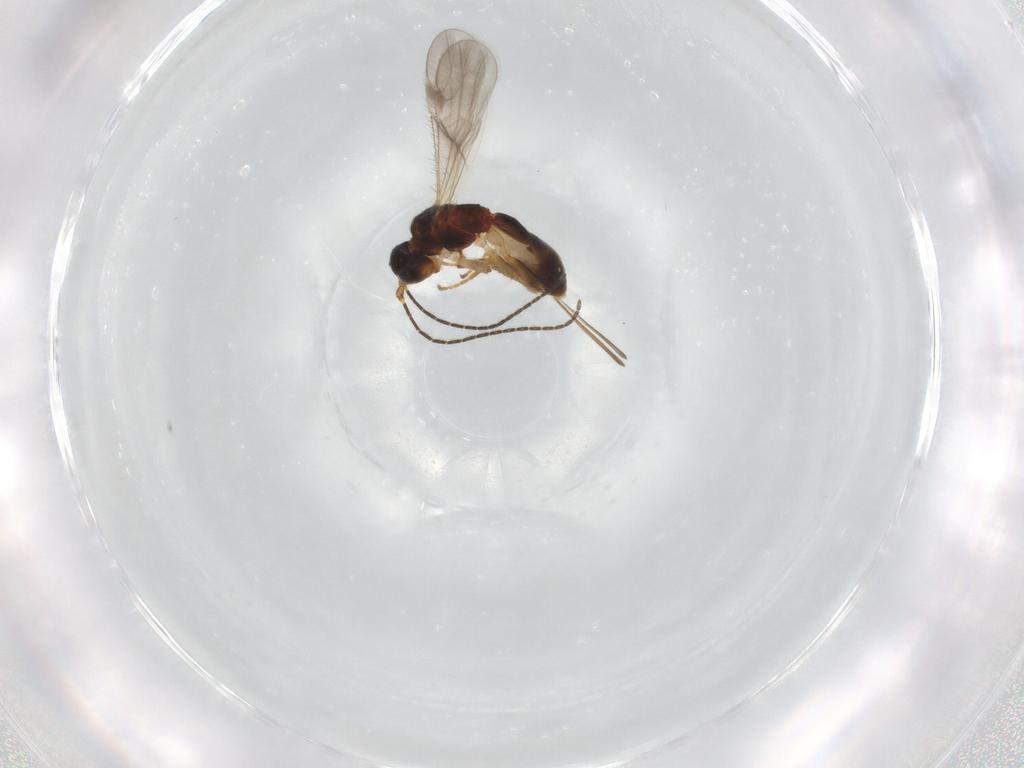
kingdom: Animalia
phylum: Arthropoda
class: Insecta
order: Hymenoptera
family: Braconidae
